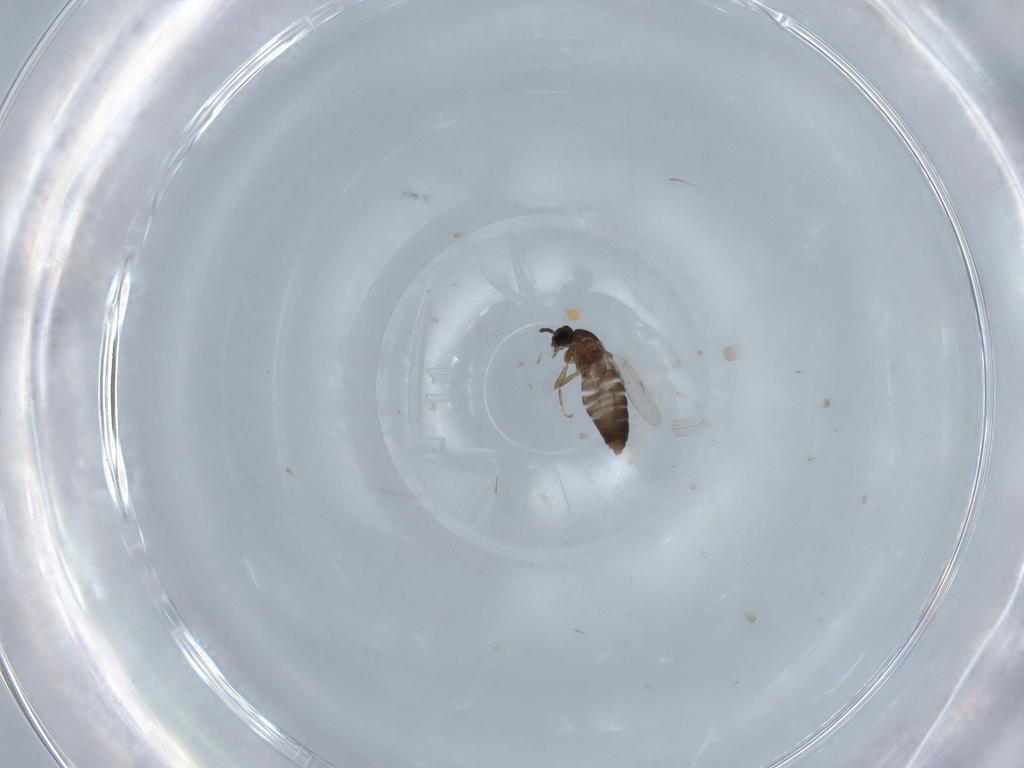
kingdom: Animalia
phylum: Arthropoda
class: Insecta
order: Diptera
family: Scatopsidae
